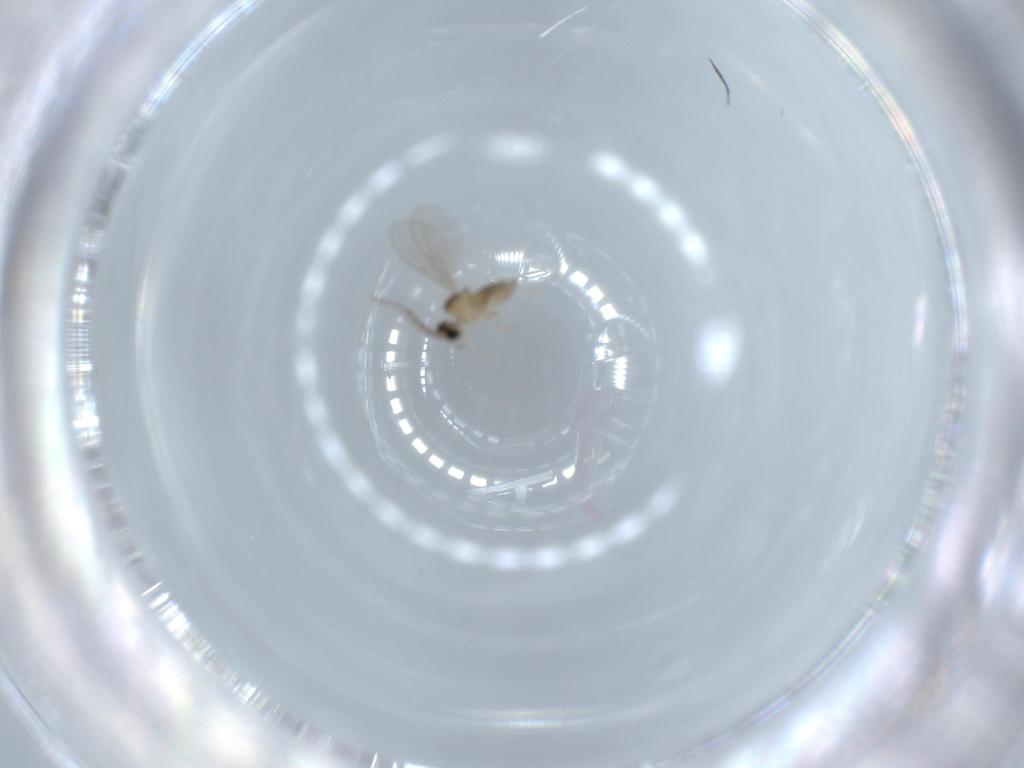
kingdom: Animalia
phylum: Arthropoda
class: Insecta
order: Diptera
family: Cecidomyiidae
